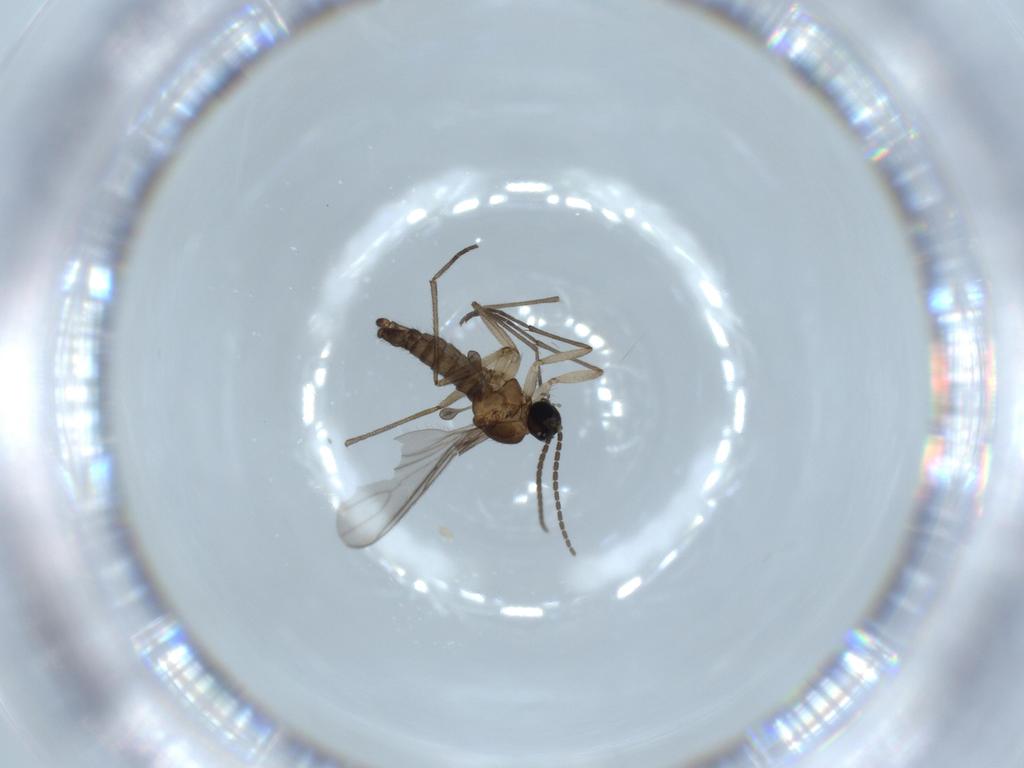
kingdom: Animalia
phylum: Arthropoda
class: Insecta
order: Diptera
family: Sciaridae
